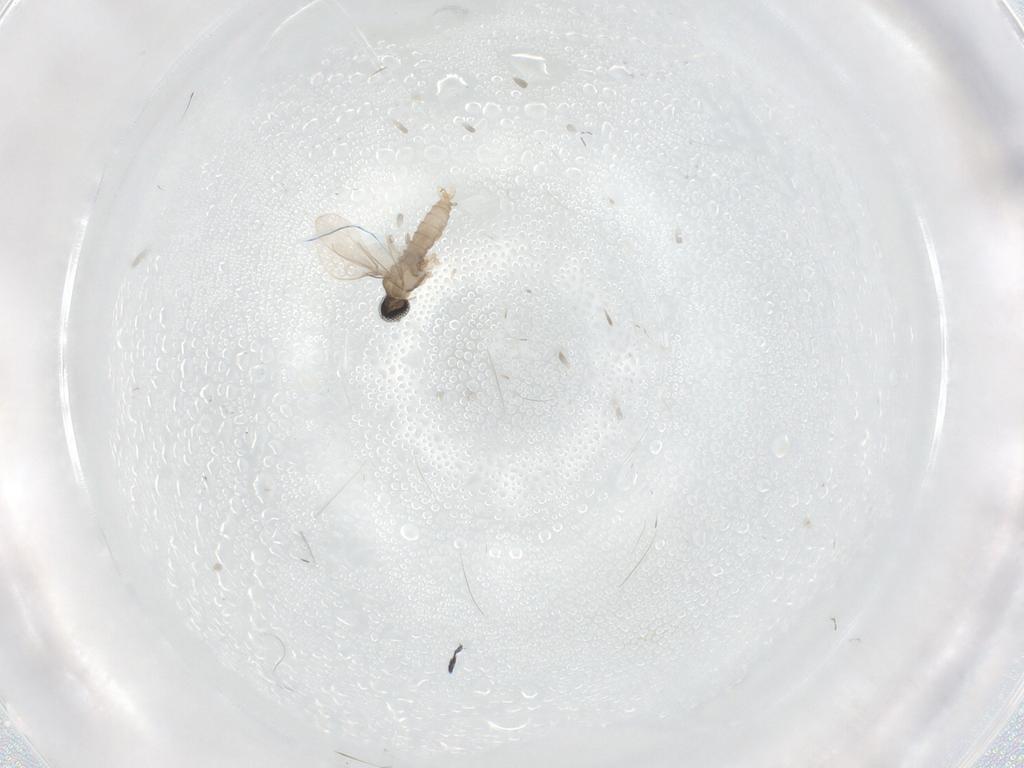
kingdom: Animalia
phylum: Arthropoda
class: Insecta
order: Diptera
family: Cecidomyiidae
